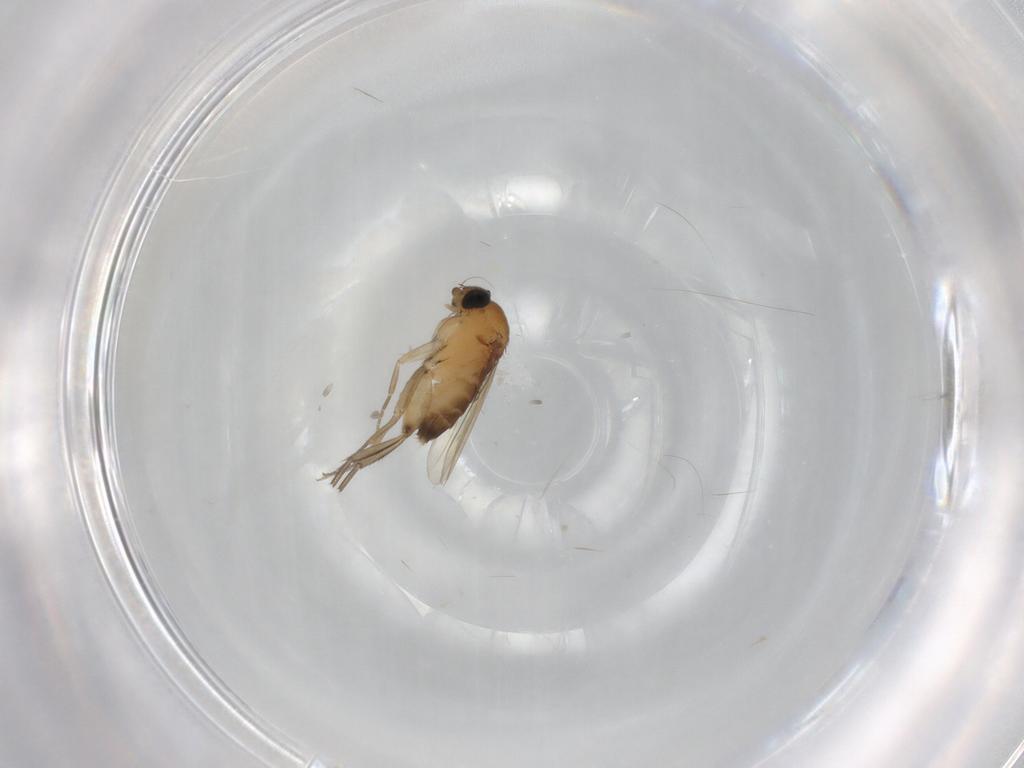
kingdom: Animalia
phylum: Arthropoda
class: Insecta
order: Diptera
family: Phoridae
